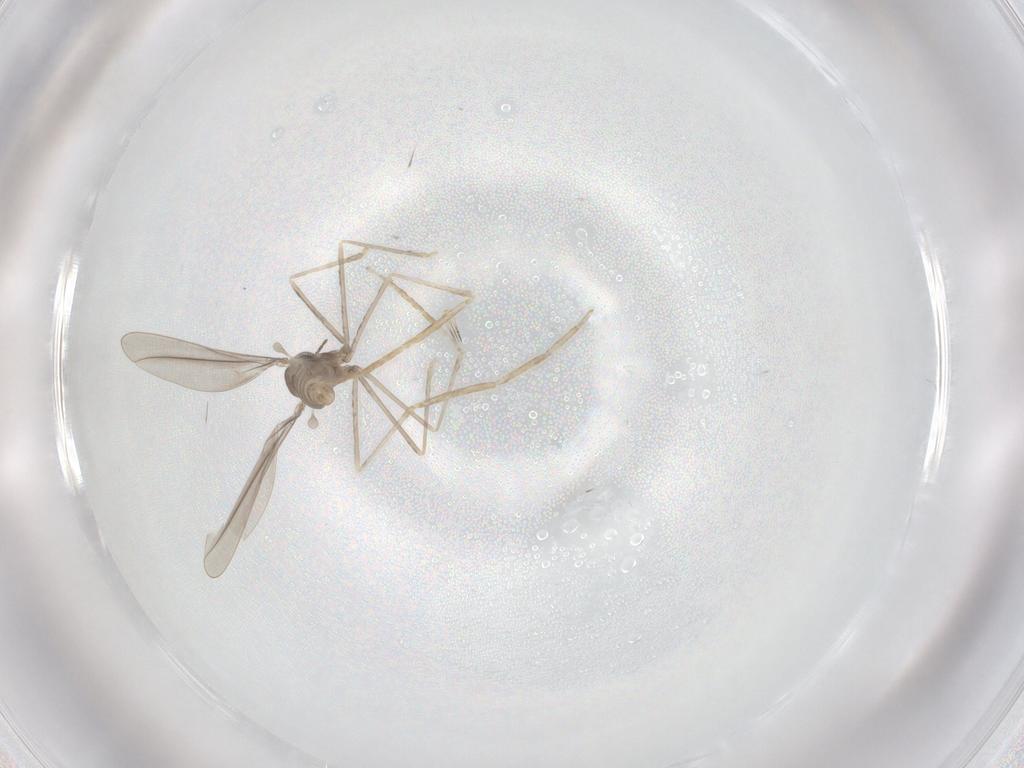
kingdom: Animalia
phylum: Arthropoda
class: Insecta
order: Diptera
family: Cecidomyiidae
